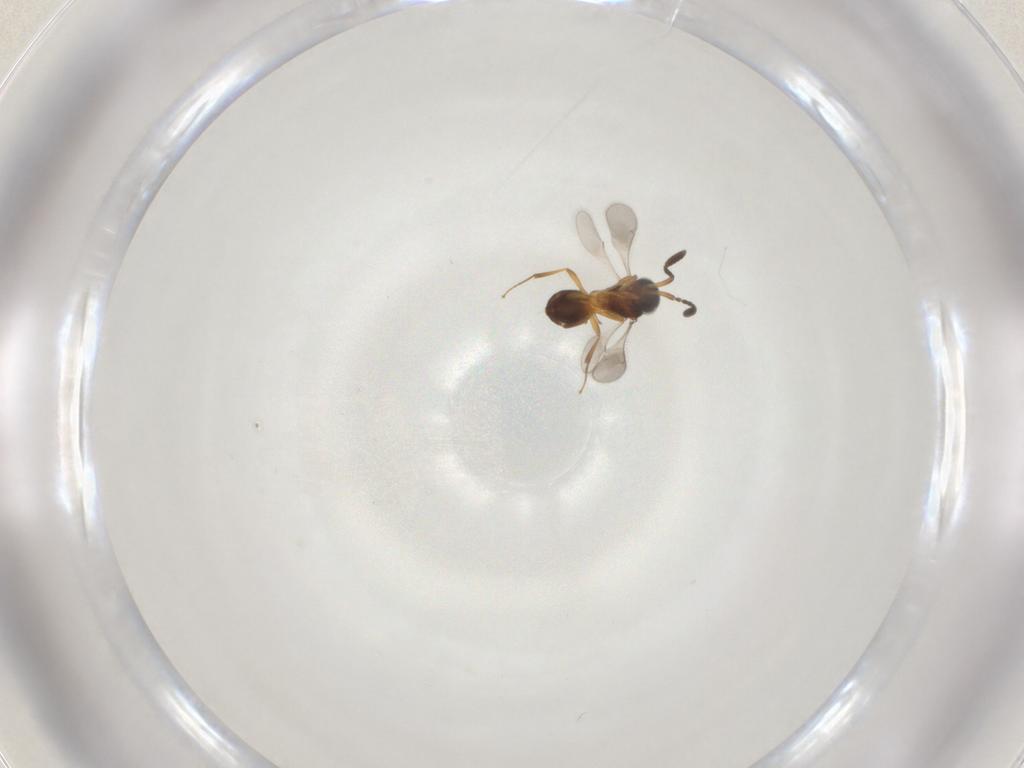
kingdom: Animalia
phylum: Arthropoda
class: Insecta
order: Hymenoptera
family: Scelionidae
